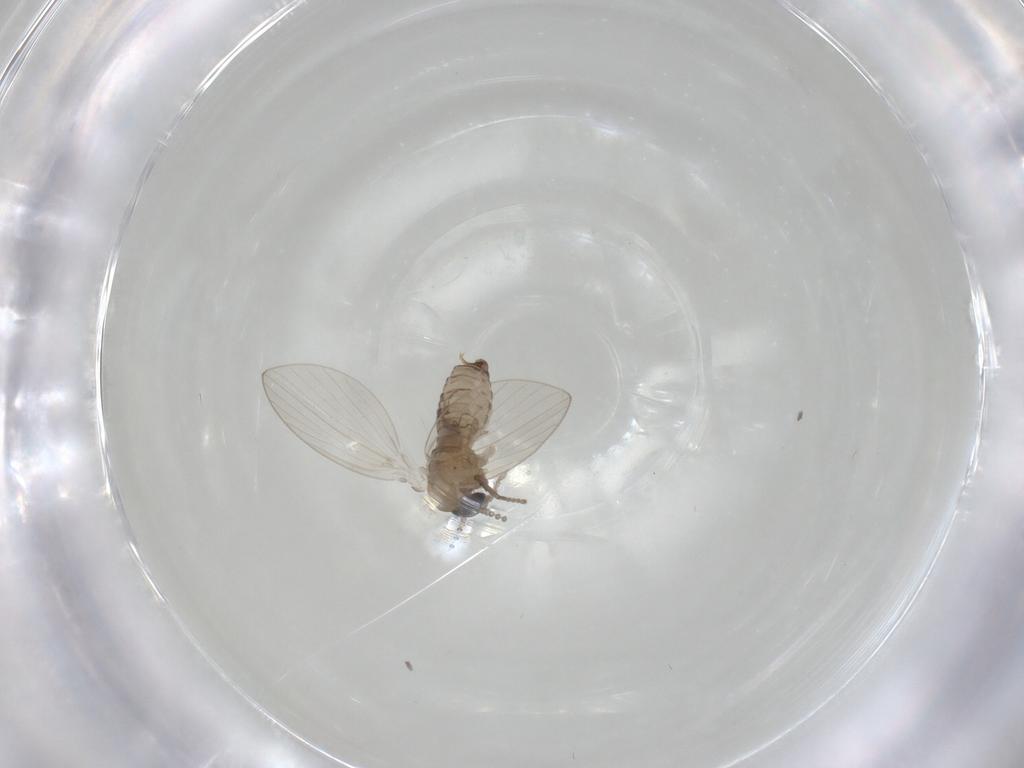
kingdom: Animalia
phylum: Arthropoda
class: Insecta
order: Diptera
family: Psychodidae
